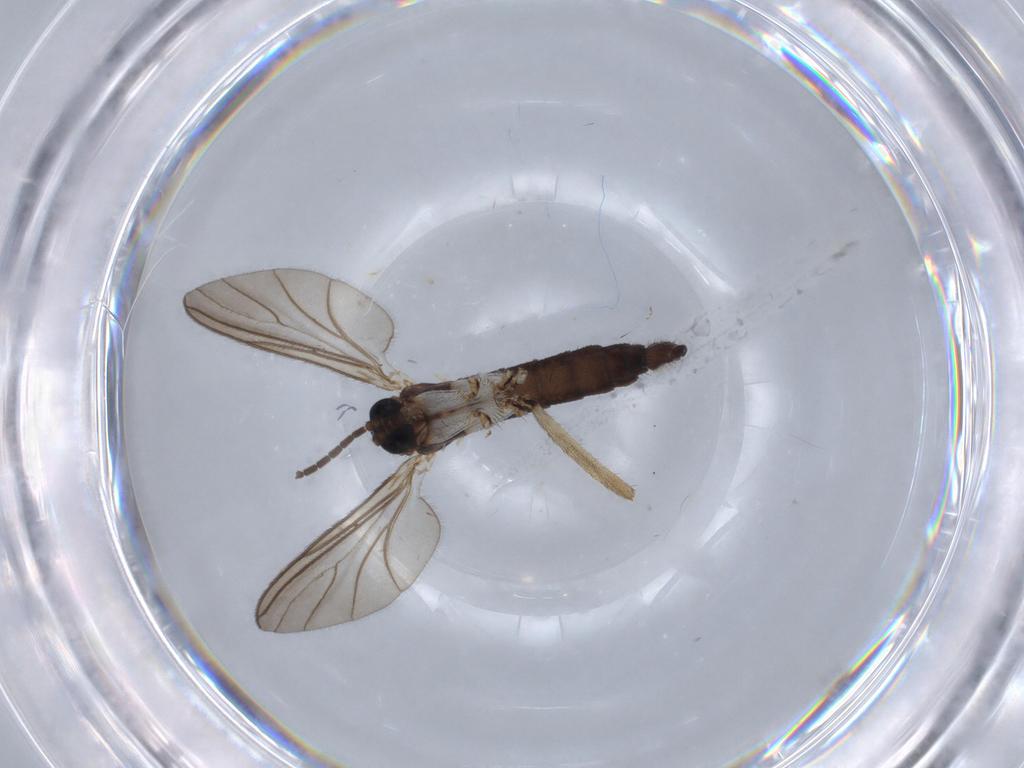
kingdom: Animalia
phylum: Arthropoda
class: Insecta
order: Diptera
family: Sciaridae
